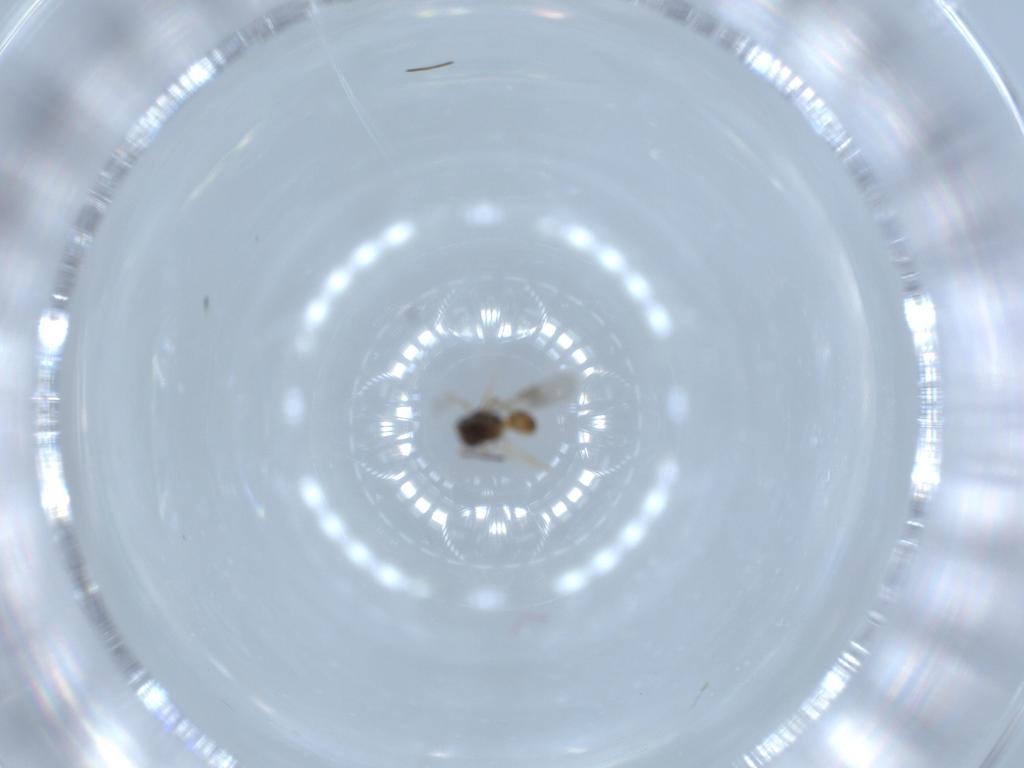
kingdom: Animalia
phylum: Arthropoda
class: Insecta
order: Hymenoptera
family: Scelionidae
